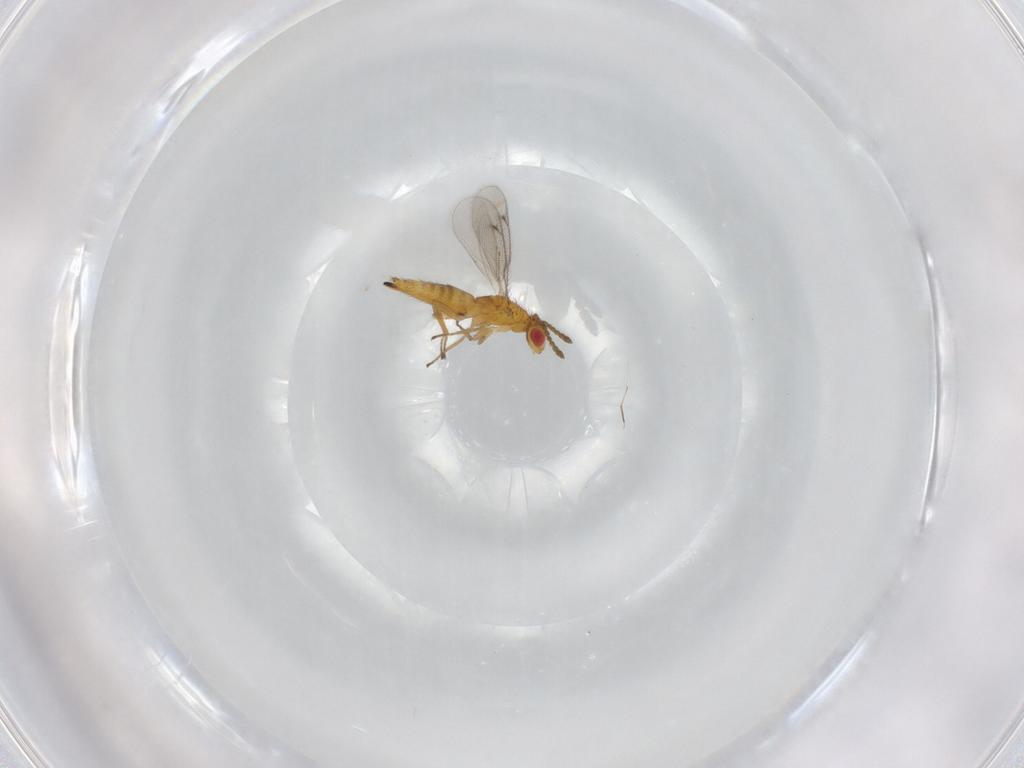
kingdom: Animalia
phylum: Arthropoda
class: Insecta
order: Hymenoptera
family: Eulophidae
